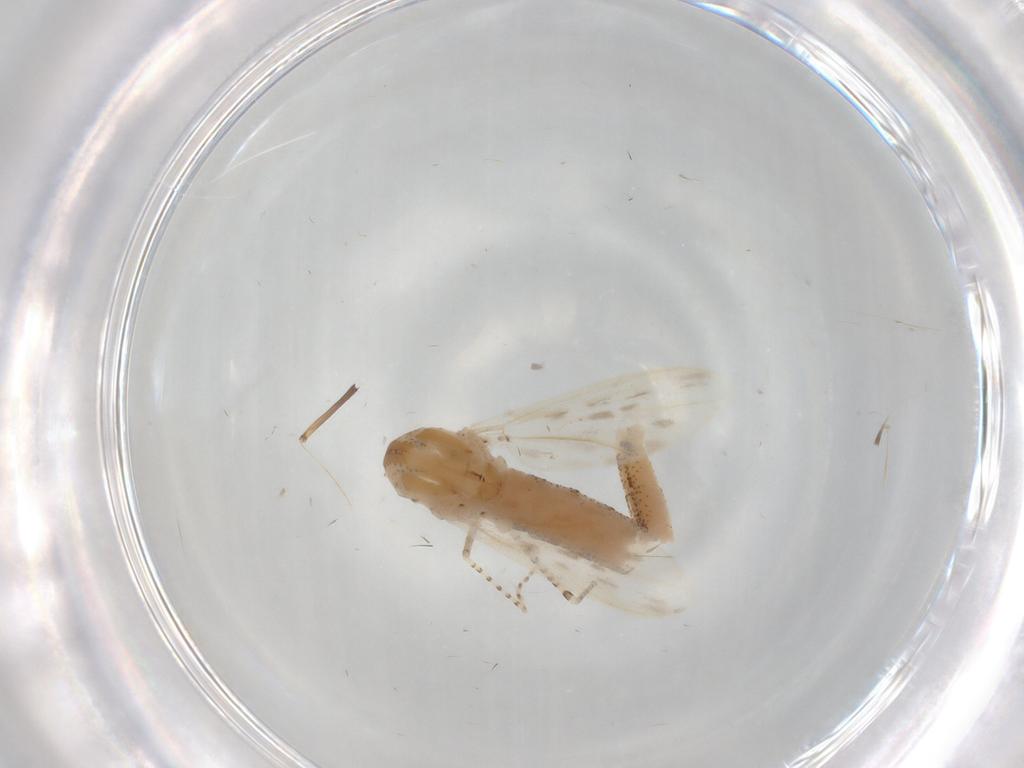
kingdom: Animalia
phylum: Arthropoda
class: Insecta
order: Diptera
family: Chaoboridae
